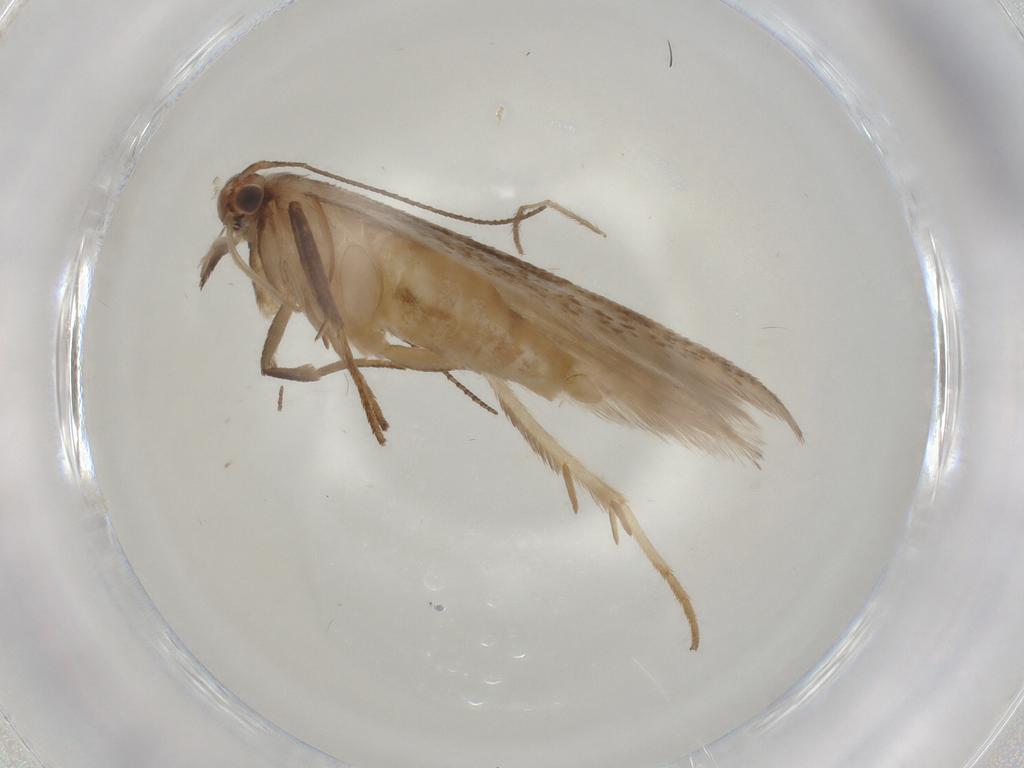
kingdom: Animalia
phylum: Arthropoda
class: Insecta
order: Lepidoptera
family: Gelechiidae
